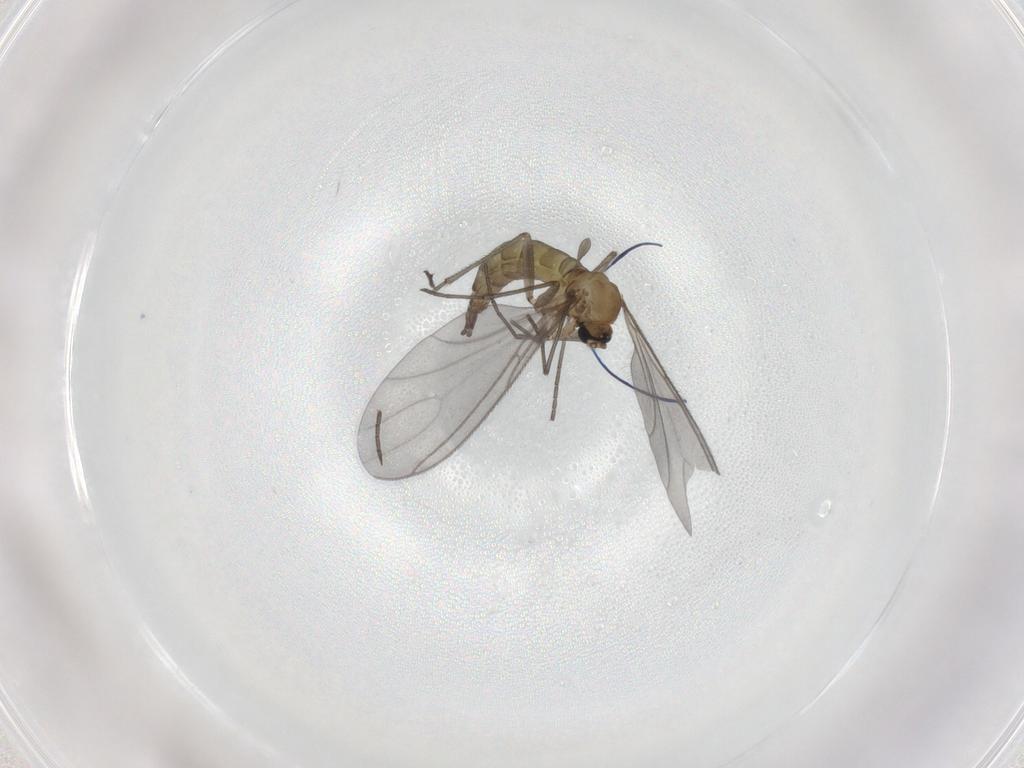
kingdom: Animalia
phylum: Arthropoda
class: Insecta
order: Diptera
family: Sciaridae
